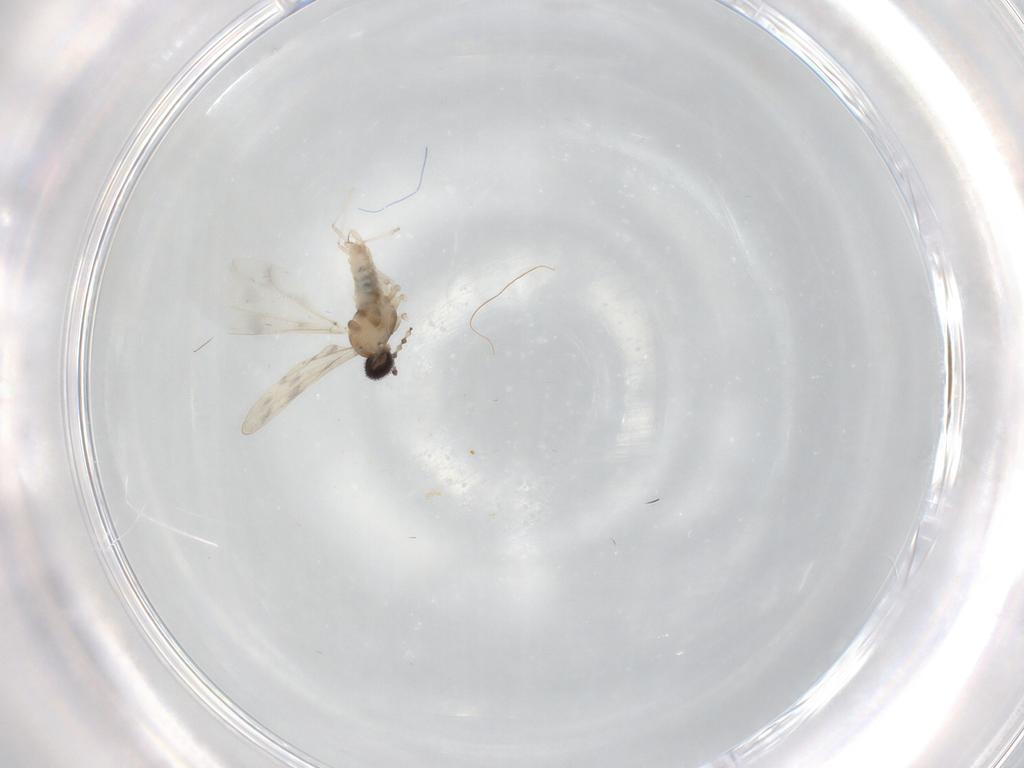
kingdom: Animalia
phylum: Arthropoda
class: Insecta
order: Diptera
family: Cecidomyiidae
